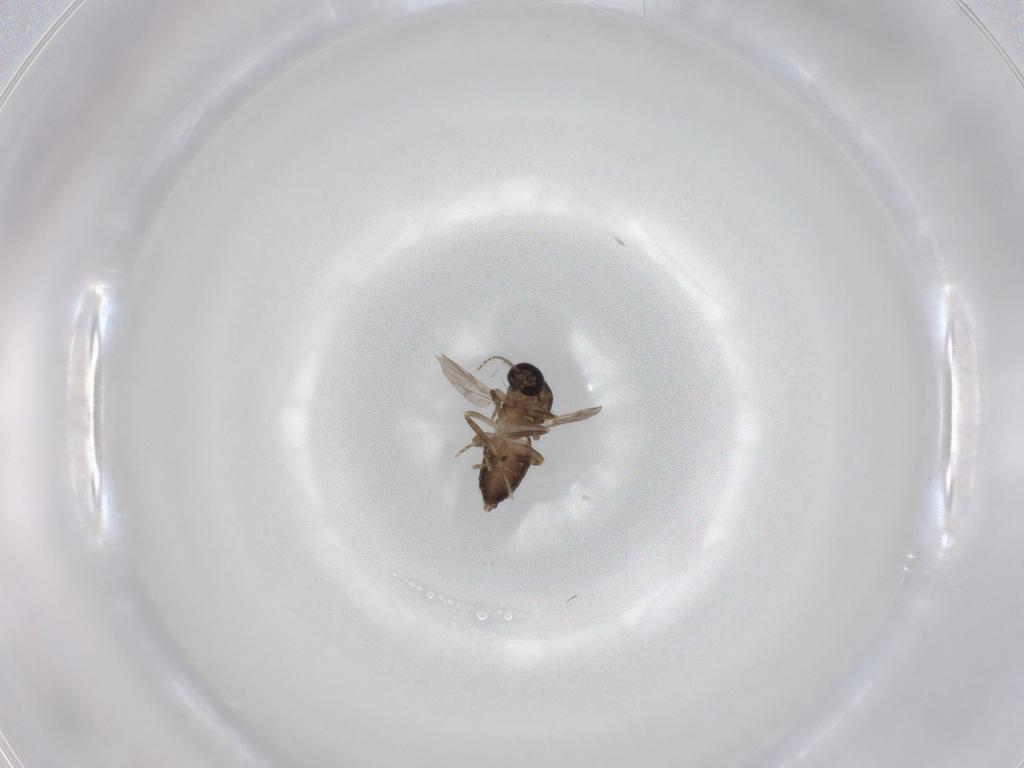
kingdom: Animalia
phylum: Arthropoda
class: Insecta
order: Diptera
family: Ceratopogonidae
